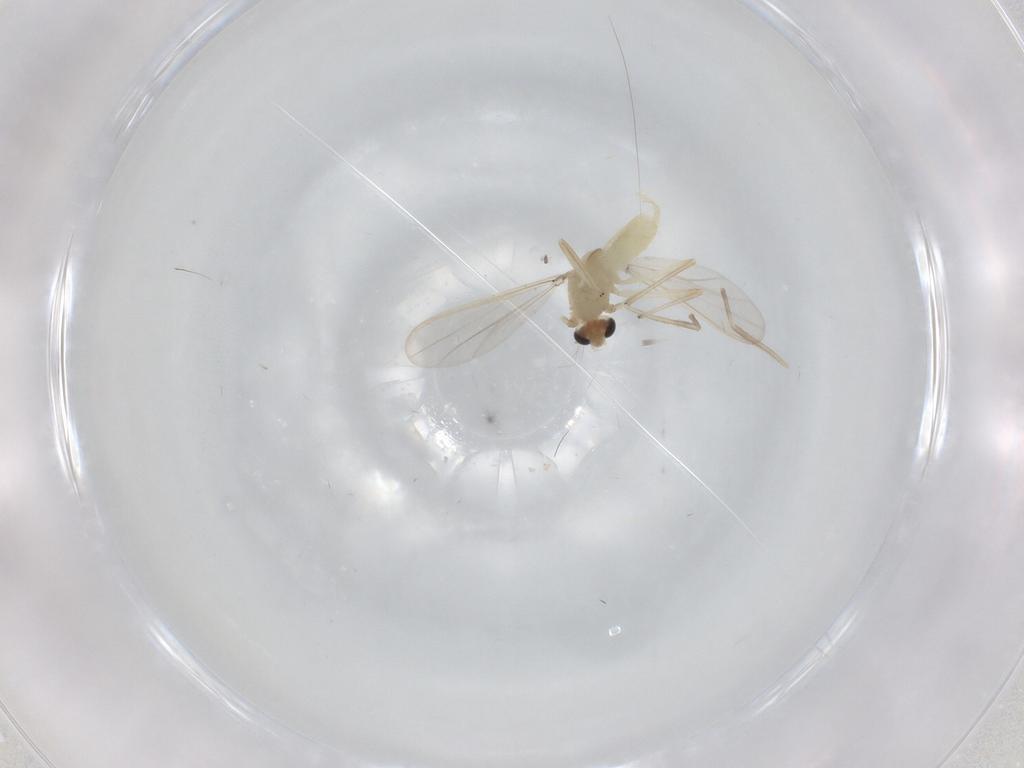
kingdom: Animalia
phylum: Arthropoda
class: Insecta
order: Diptera
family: Chironomidae
